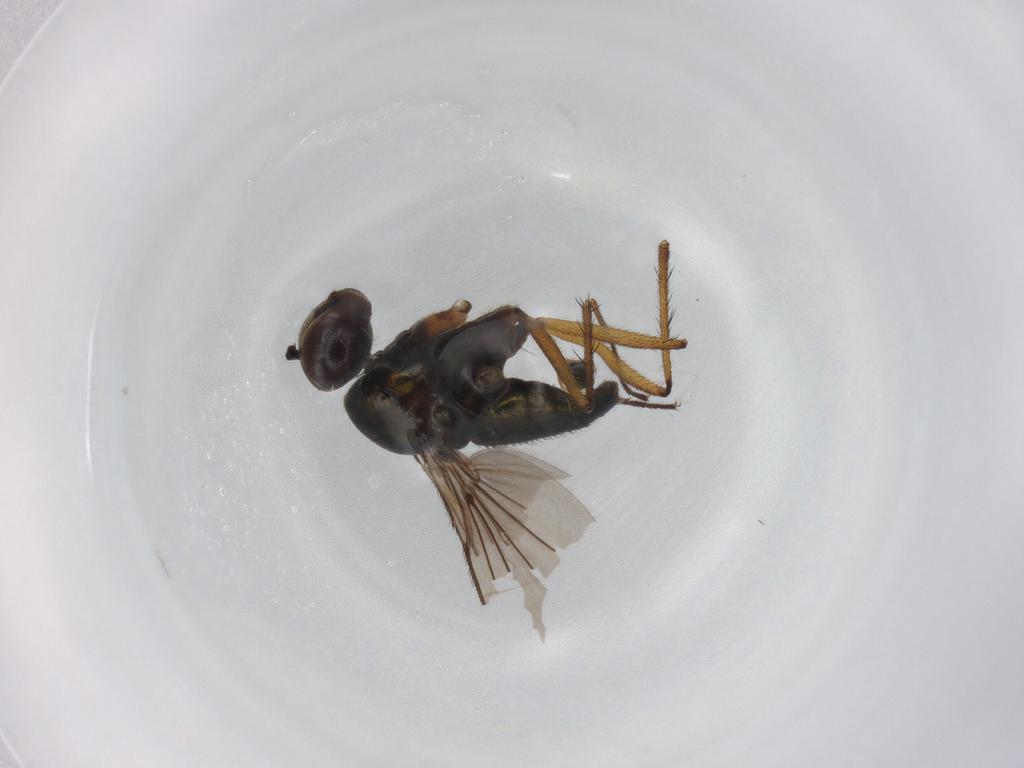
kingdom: Animalia
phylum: Arthropoda
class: Insecta
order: Diptera
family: Dolichopodidae
